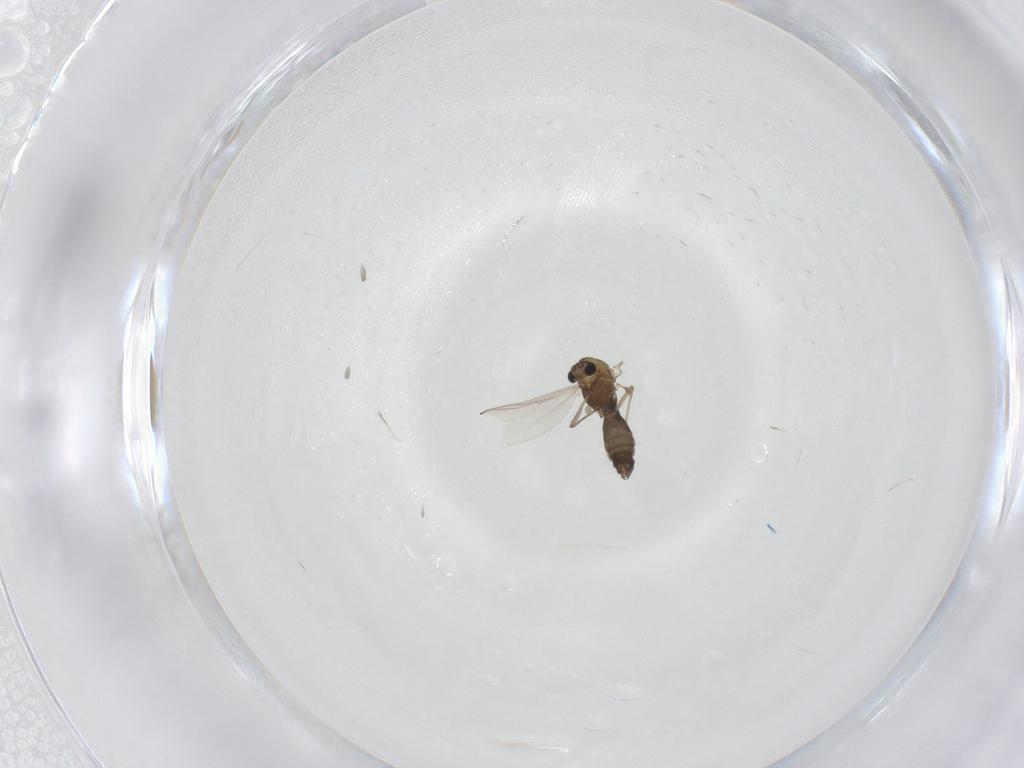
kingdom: Animalia
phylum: Arthropoda
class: Insecta
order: Diptera
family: Chironomidae
